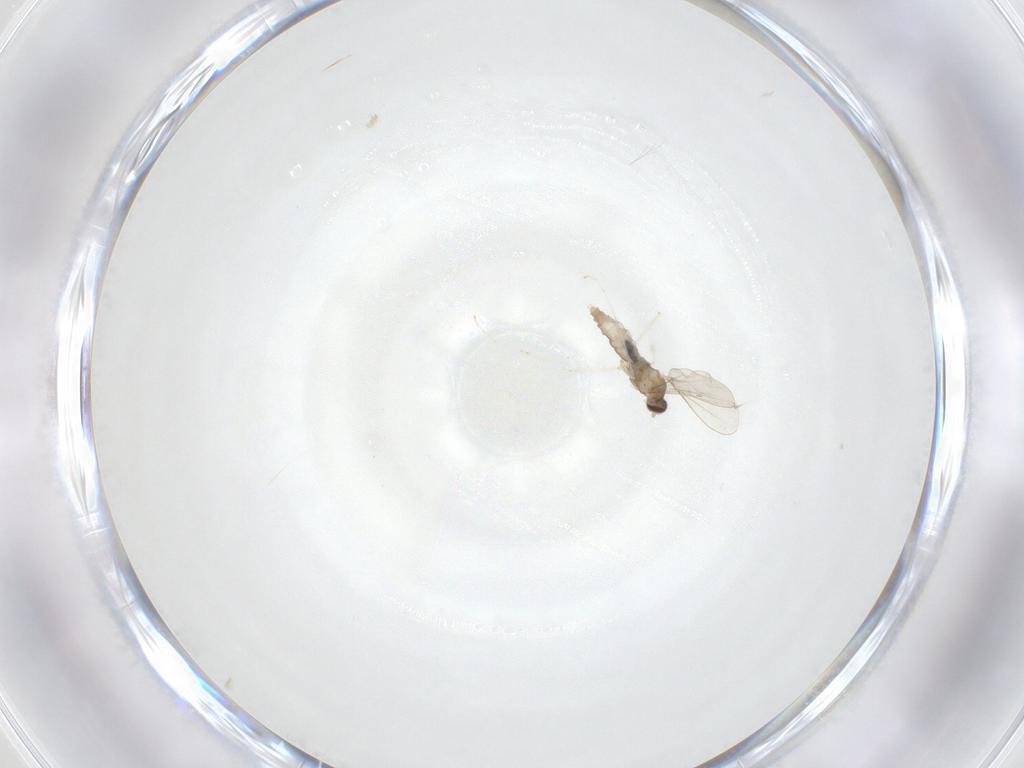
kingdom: Animalia
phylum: Arthropoda
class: Insecta
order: Diptera
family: Cecidomyiidae
